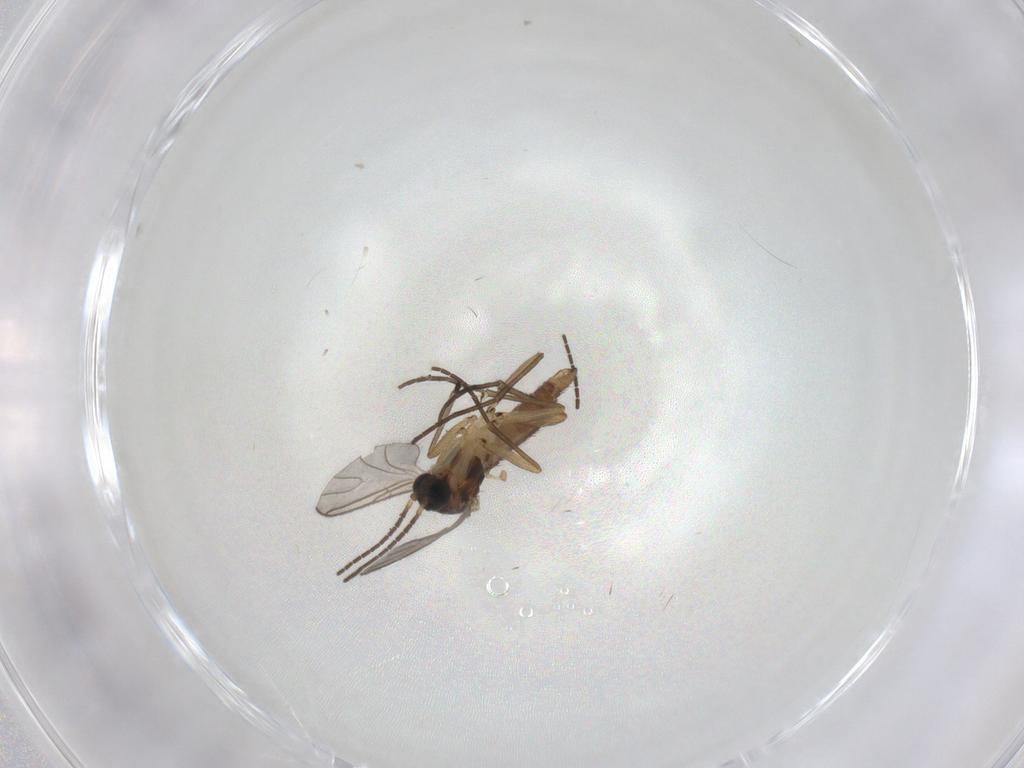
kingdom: Animalia
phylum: Arthropoda
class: Insecta
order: Diptera
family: Sciaridae
